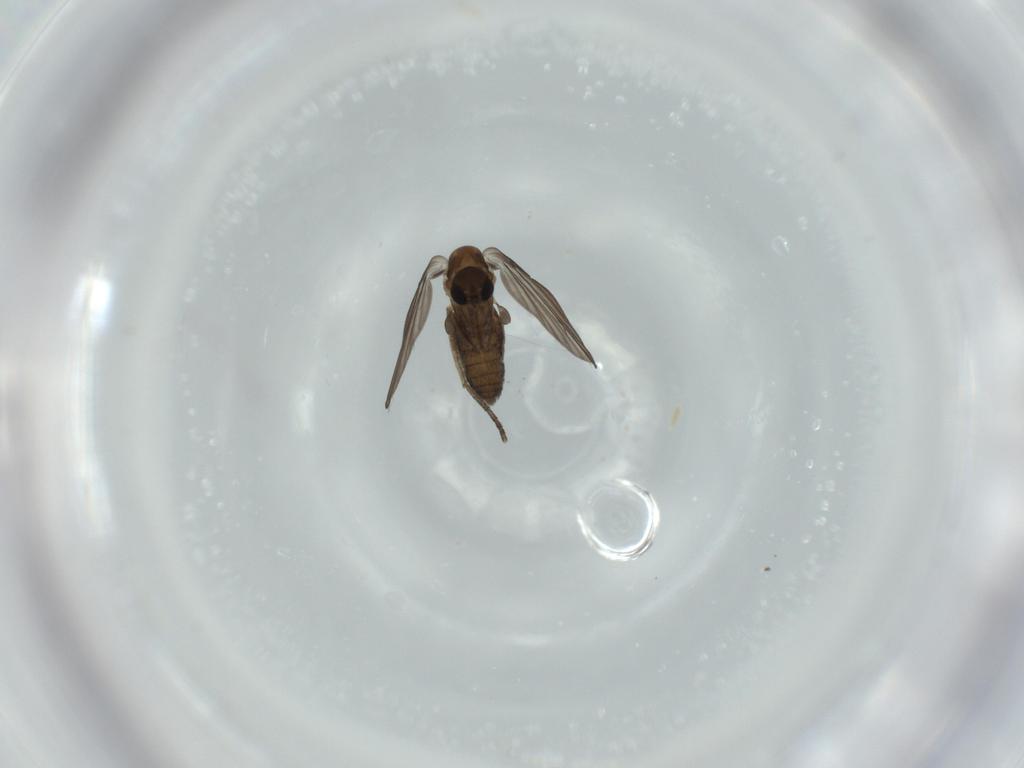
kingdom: Animalia
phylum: Arthropoda
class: Insecta
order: Diptera
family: Psychodidae
